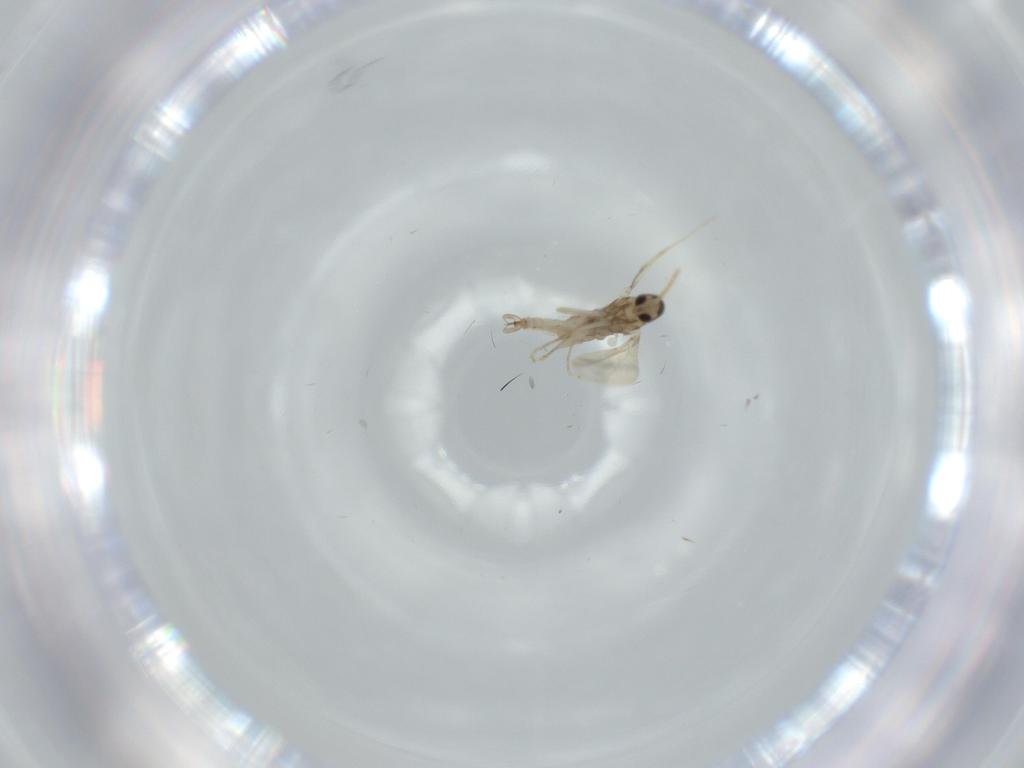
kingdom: Animalia
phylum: Arthropoda
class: Insecta
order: Diptera
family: Cecidomyiidae
